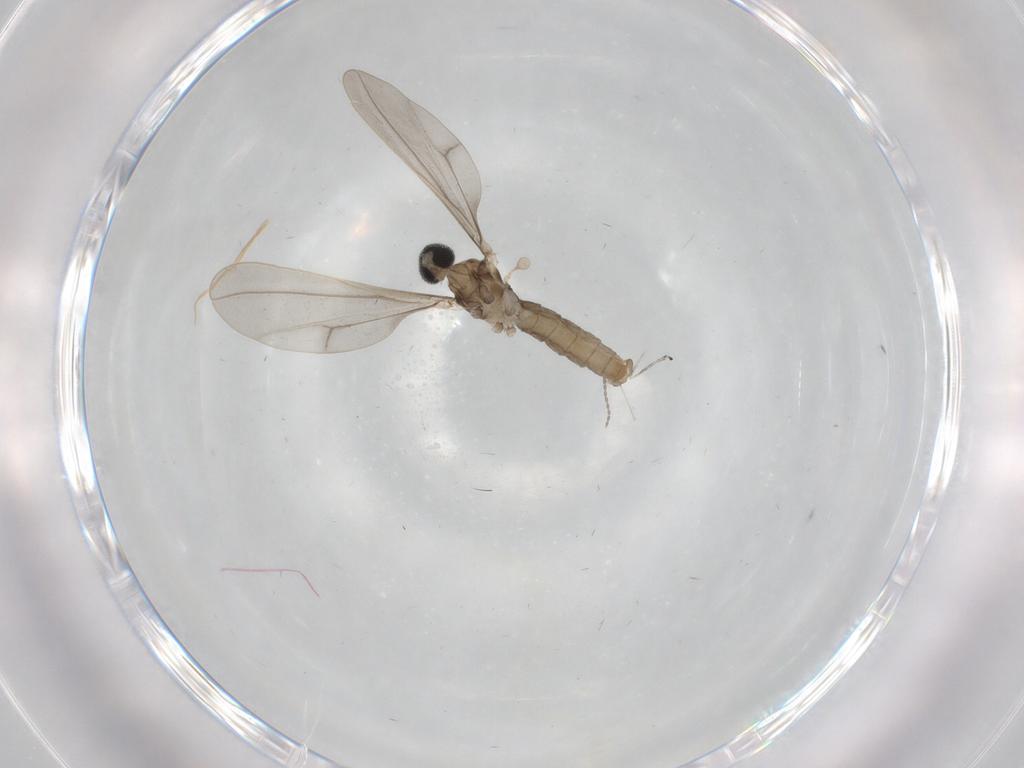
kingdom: Animalia
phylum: Arthropoda
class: Insecta
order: Diptera
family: Cecidomyiidae
